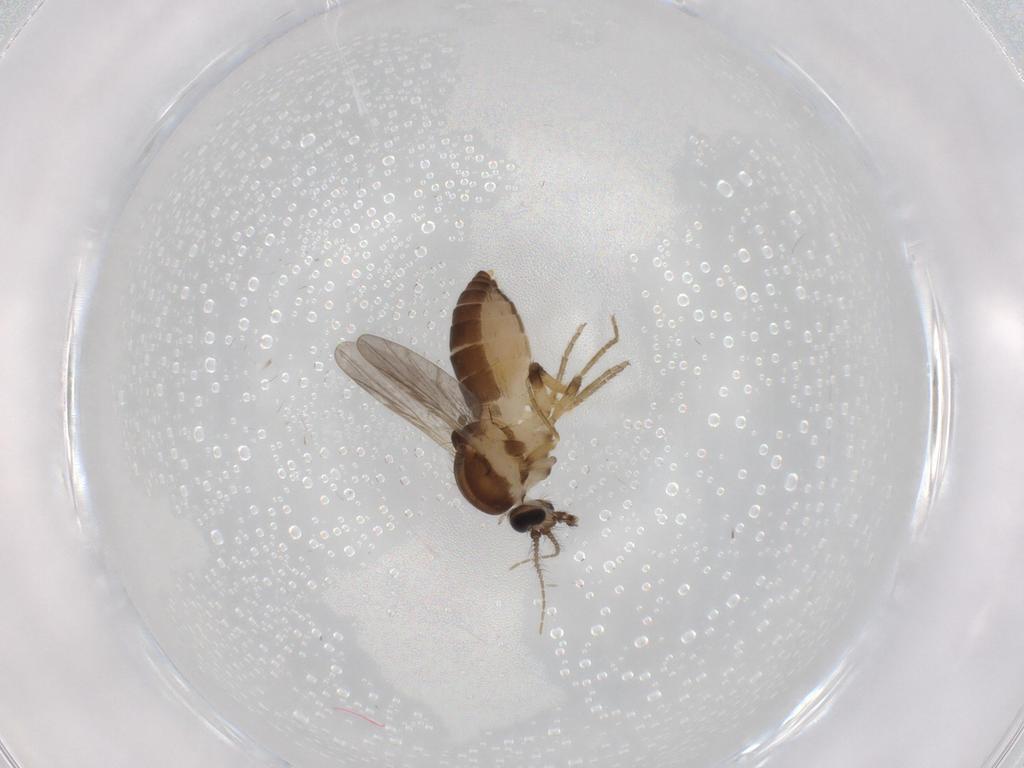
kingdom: Animalia
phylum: Arthropoda
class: Insecta
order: Diptera
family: Ceratopogonidae
